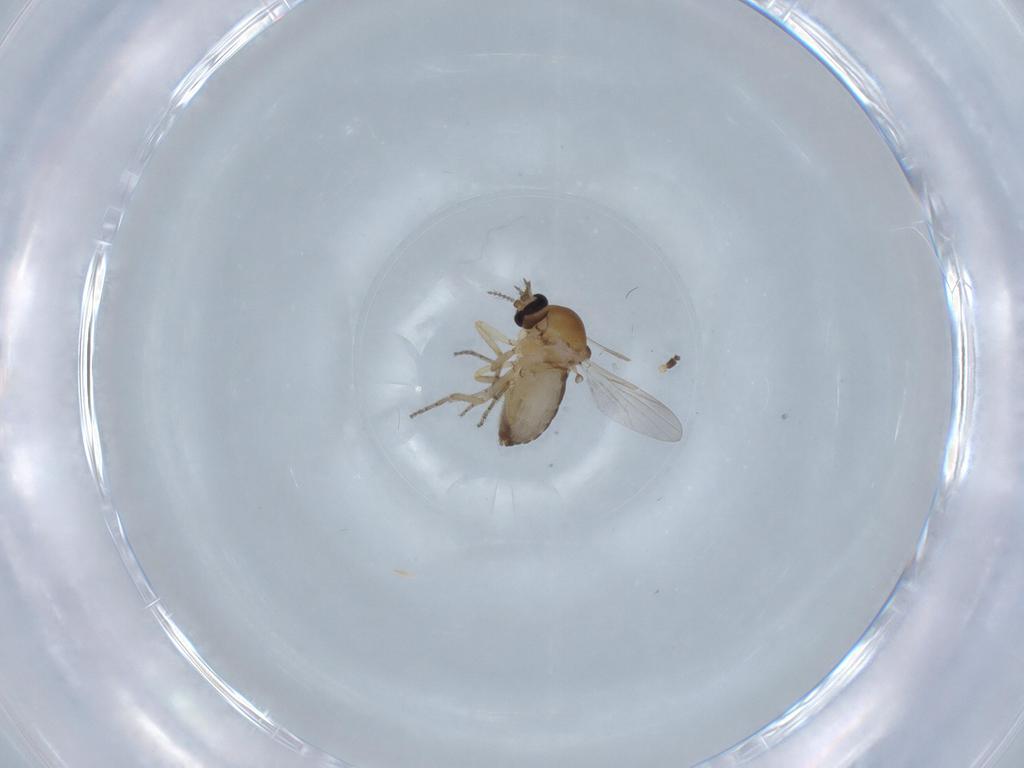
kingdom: Animalia
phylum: Arthropoda
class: Insecta
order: Diptera
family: Ceratopogonidae
